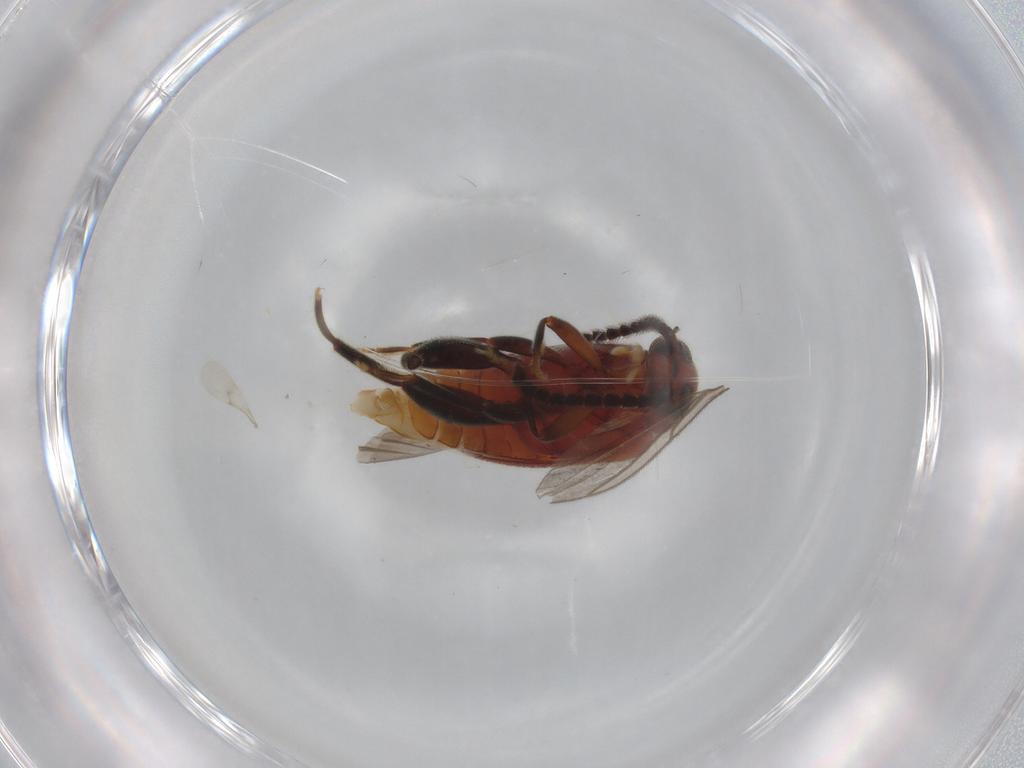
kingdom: Animalia
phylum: Arthropoda
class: Insecta
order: Coleoptera
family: Aderidae
